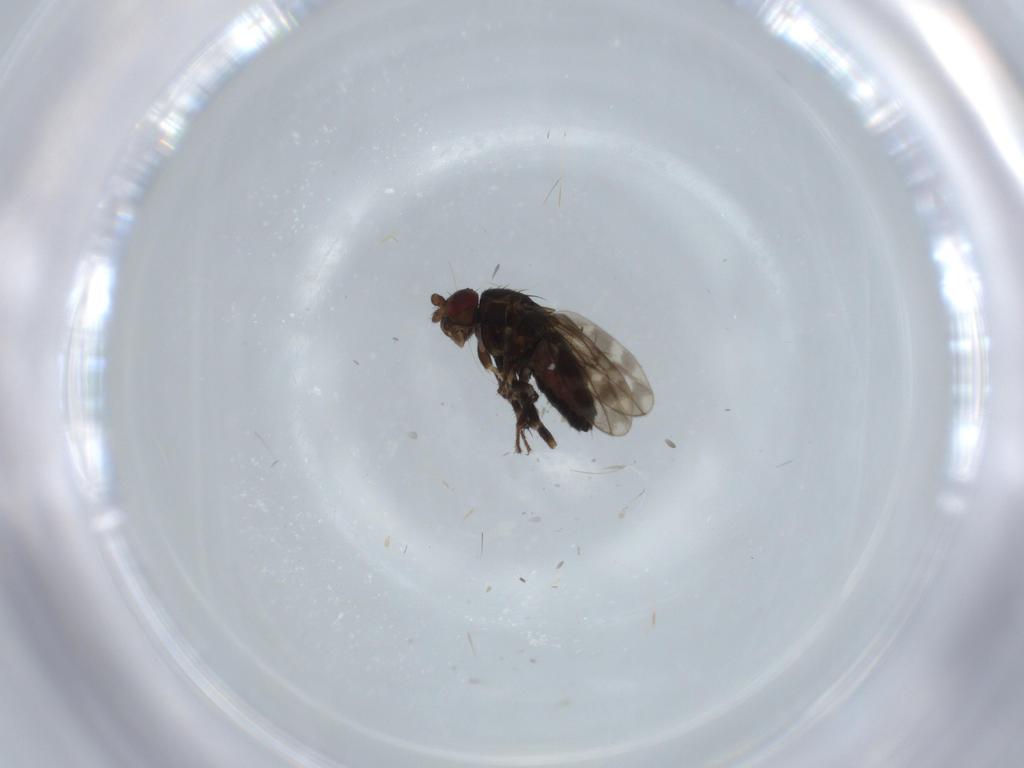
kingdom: Animalia
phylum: Arthropoda
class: Insecta
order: Diptera
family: Sphaeroceridae
